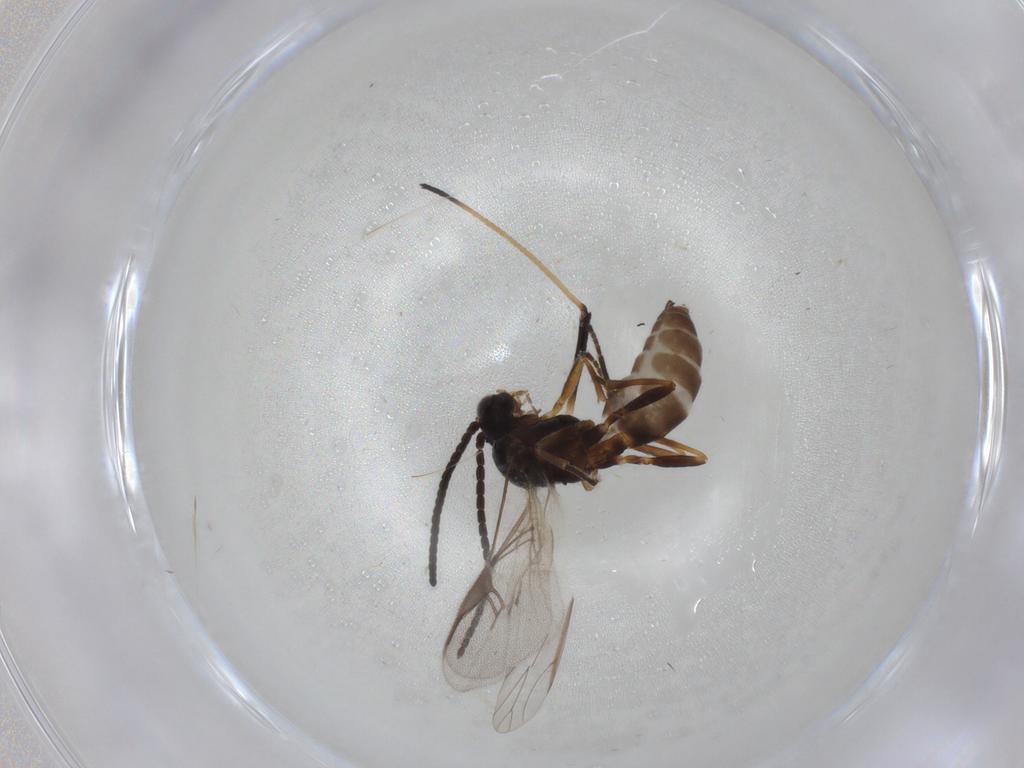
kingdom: Animalia
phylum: Arthropoda
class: Insecta
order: Hymenoptera
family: Braconidae
